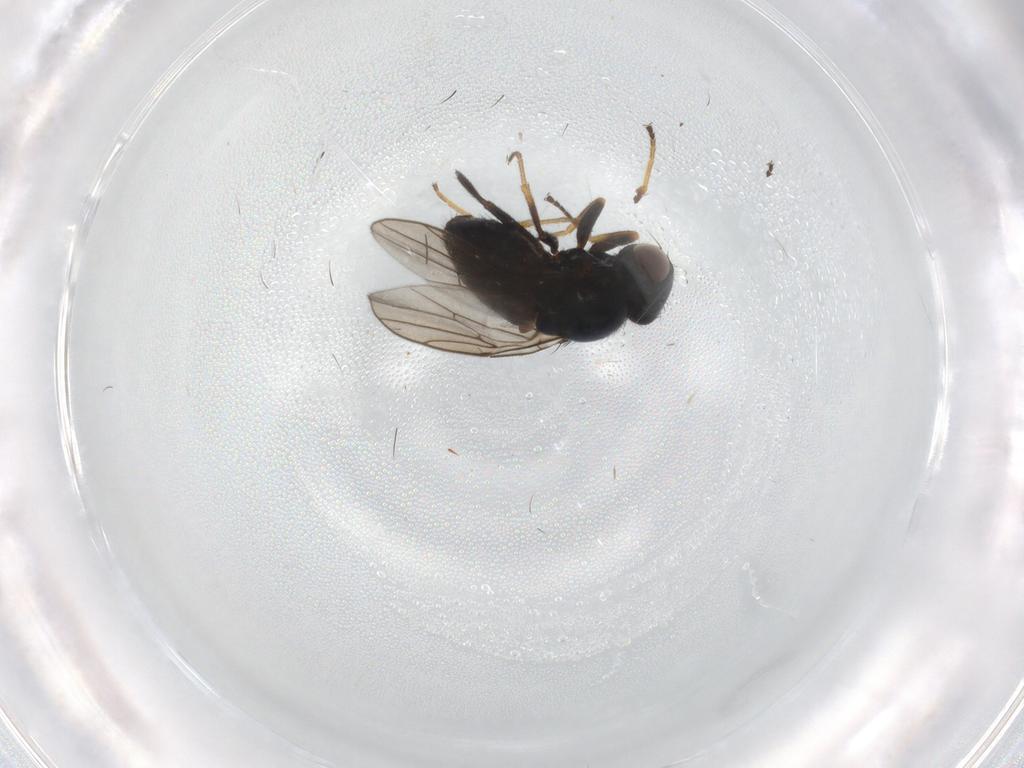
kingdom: Animalia
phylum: Arthropoda
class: Insecta
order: Diptera
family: Chloropidae
